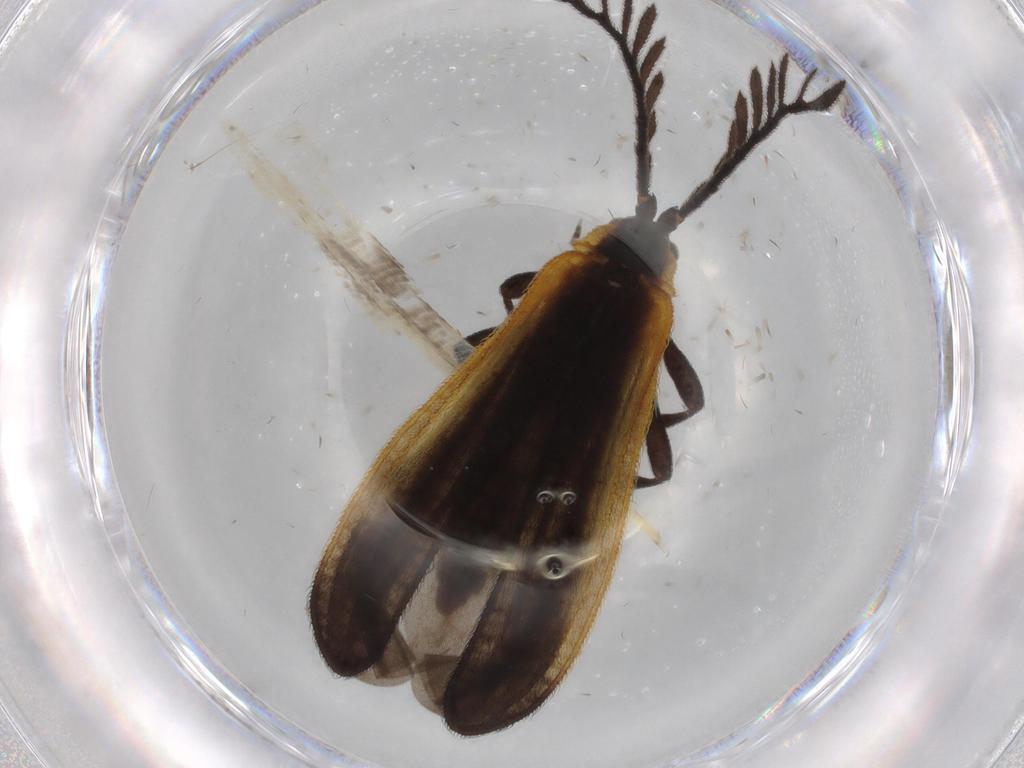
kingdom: Animalia
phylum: Arthropoda
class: Insecta
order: Coleoptera
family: Lycidae
